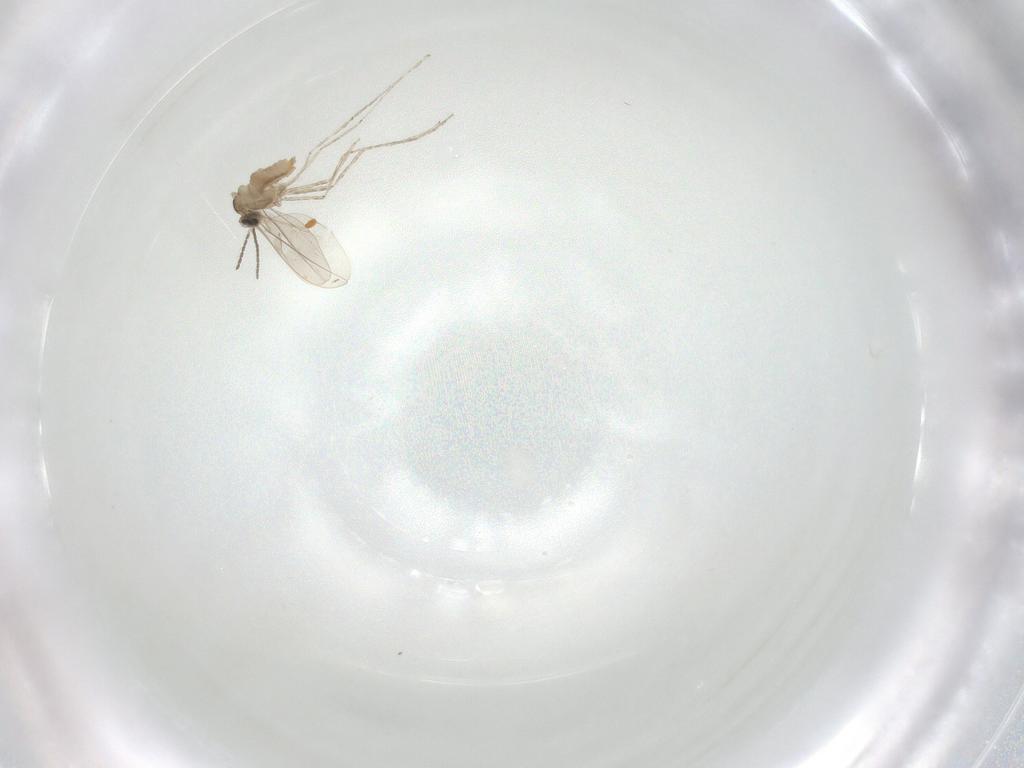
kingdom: Animalia
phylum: Arthropoda
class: Insecta
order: Diptera
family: Cecidomyiidae
